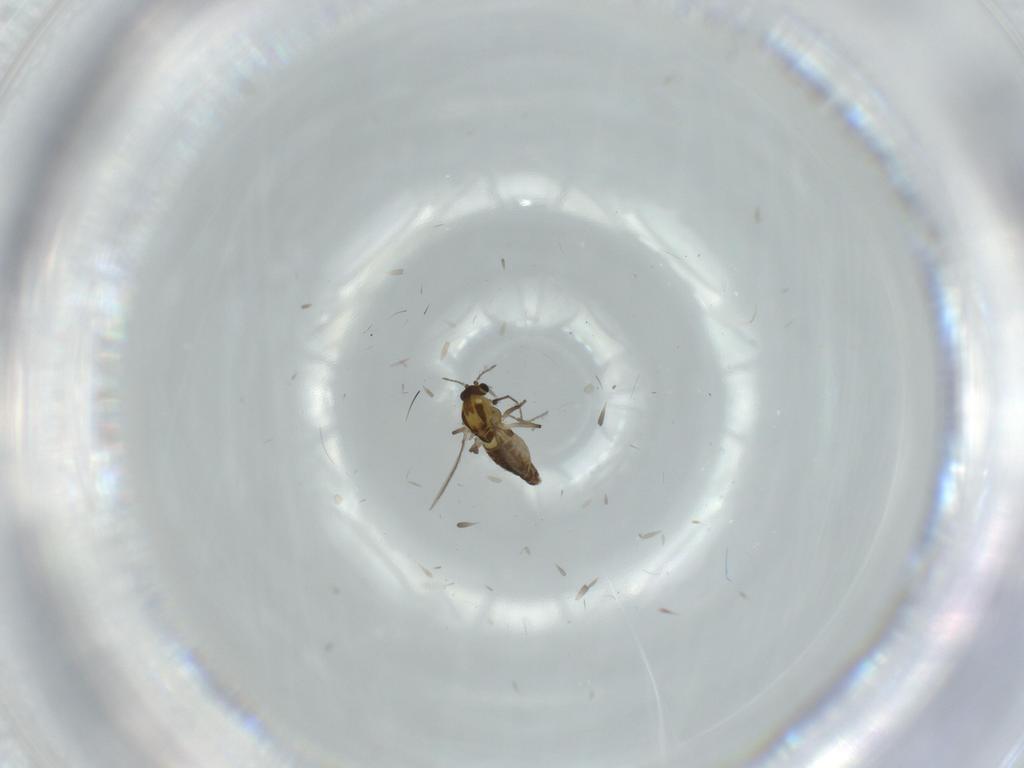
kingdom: Animalia
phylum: Arthropoda
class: Insecta
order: Diptera
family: Chironomidae
